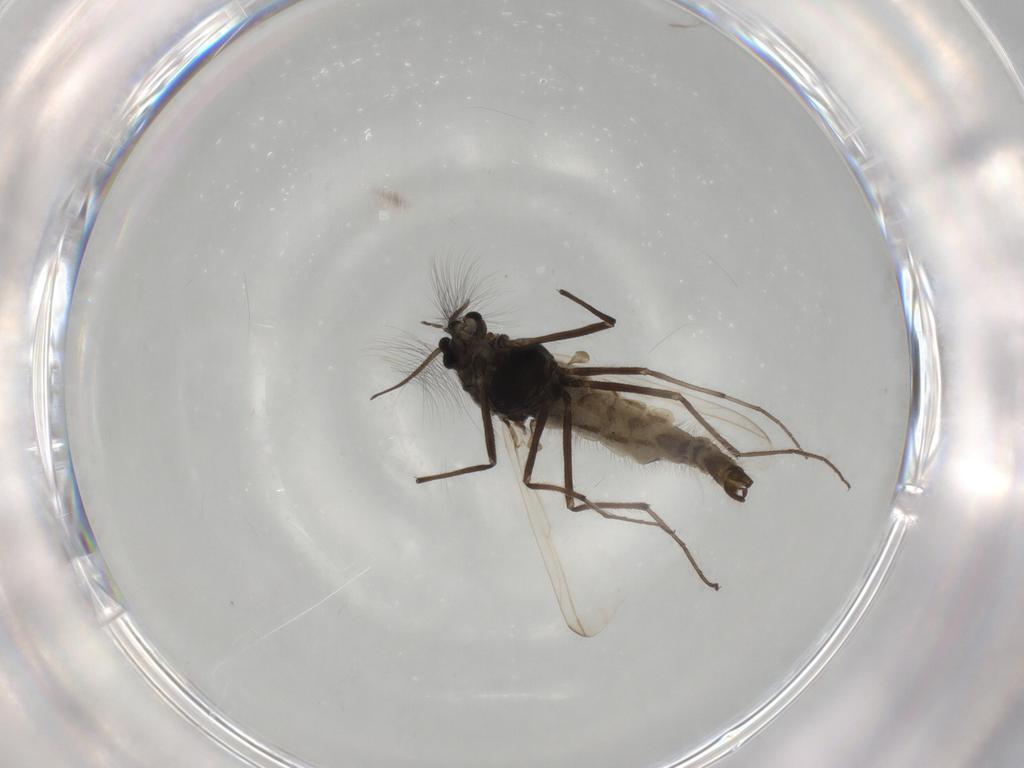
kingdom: Animalia
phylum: Arthropoda
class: Insecta
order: Diptera
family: Chironomidae
